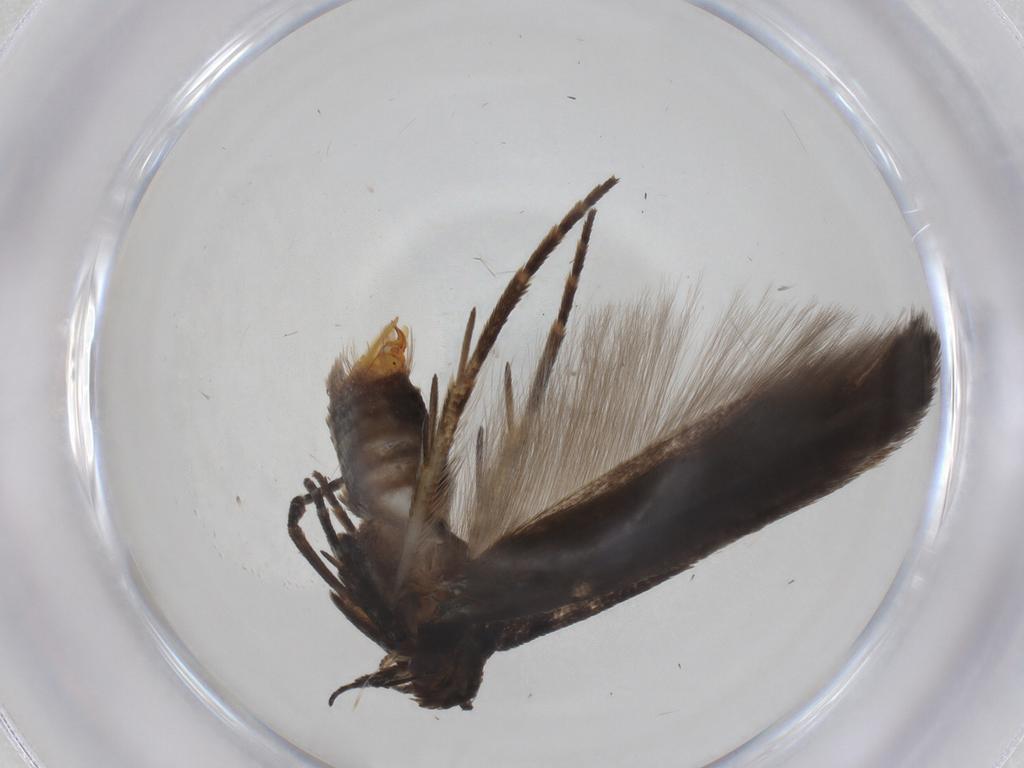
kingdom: Animalia
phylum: Arthropoda
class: Insecta
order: Lepidoptera
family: Gelechiidae
